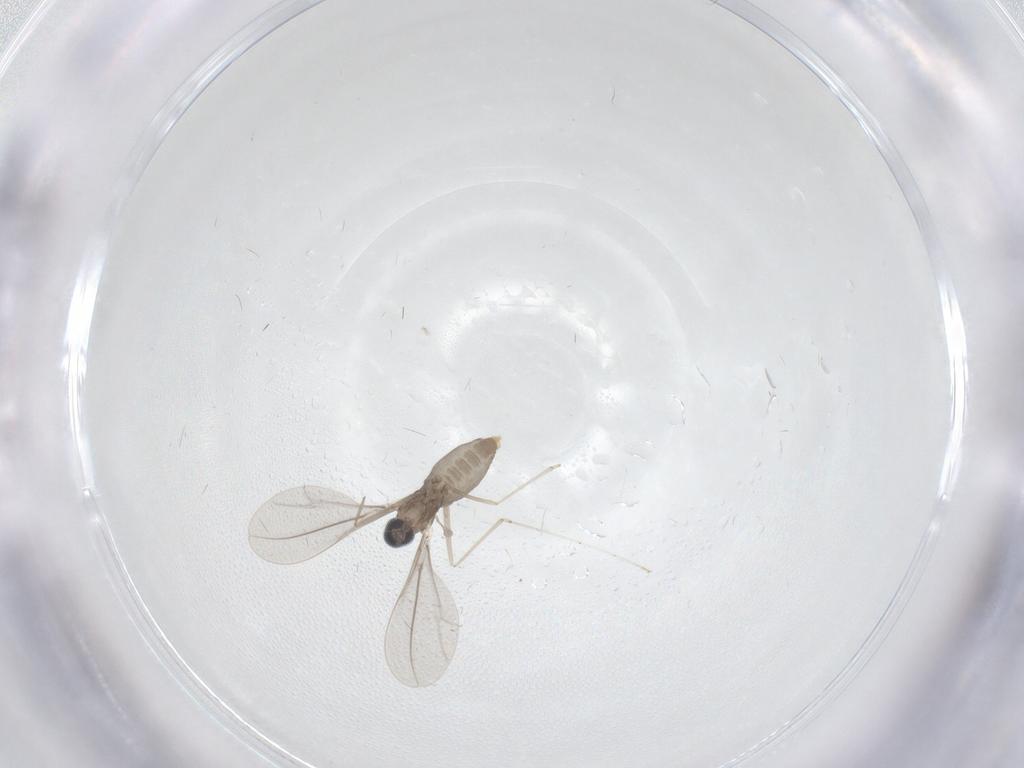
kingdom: Animalia
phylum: Arthropoda
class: Insecta
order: Diptera
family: Cecidomyiidae
